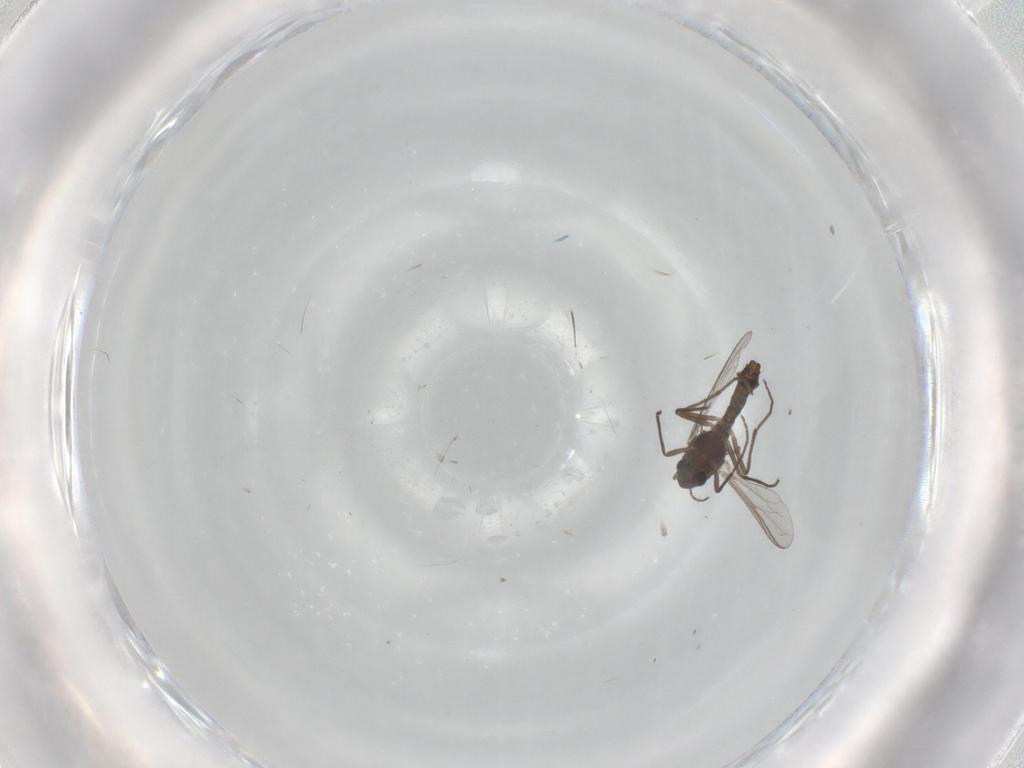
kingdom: Animalia
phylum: Arthropoda
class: Insecta
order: Diptera
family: Chironomidae
